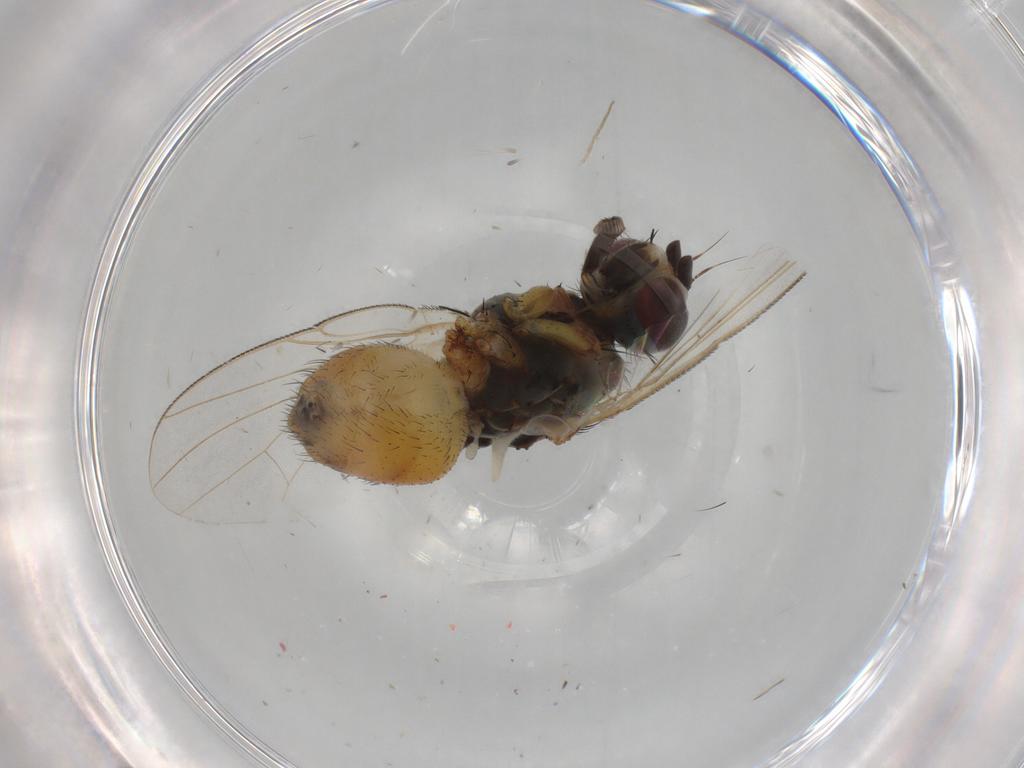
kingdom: Animalia
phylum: Arthropoda
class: Insecta
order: Diptera
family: Muscidae
